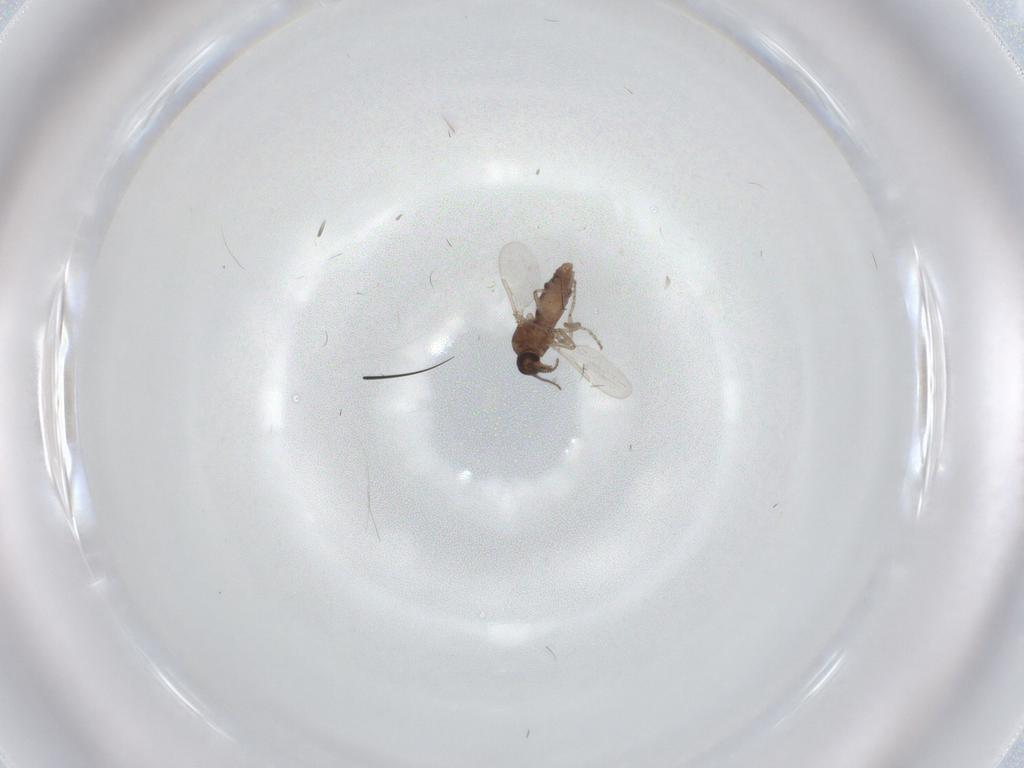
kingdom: Animalia
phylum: Arthropoda
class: Insecta
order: Diptera
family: Ceratopogonidae
